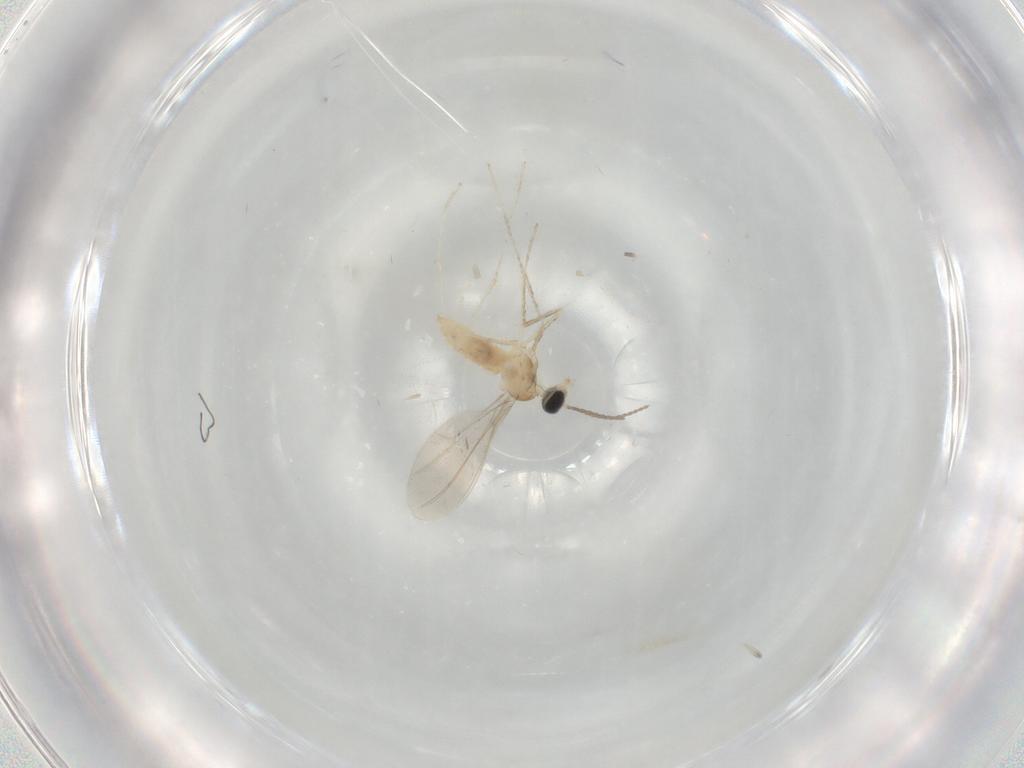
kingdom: Animalia
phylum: Arthropoda
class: Insecta
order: Diptera
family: Cecidomyiidae
